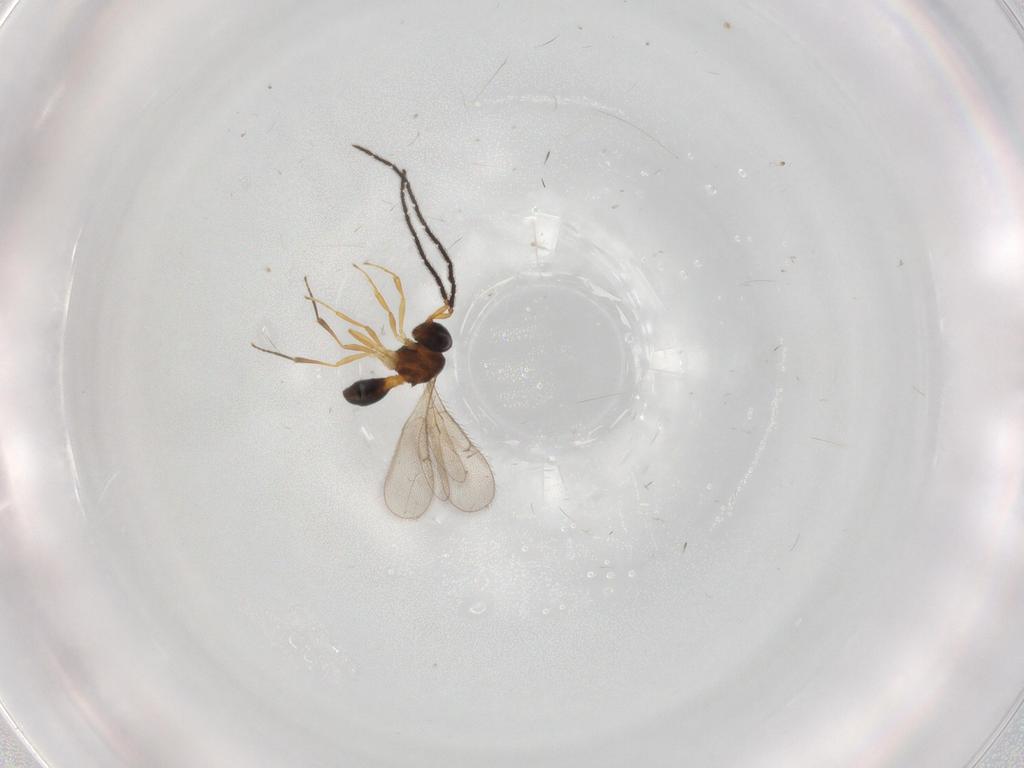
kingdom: Animalia
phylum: Arthropoda
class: Insecta
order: Hymenoptera
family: Scelionidae
